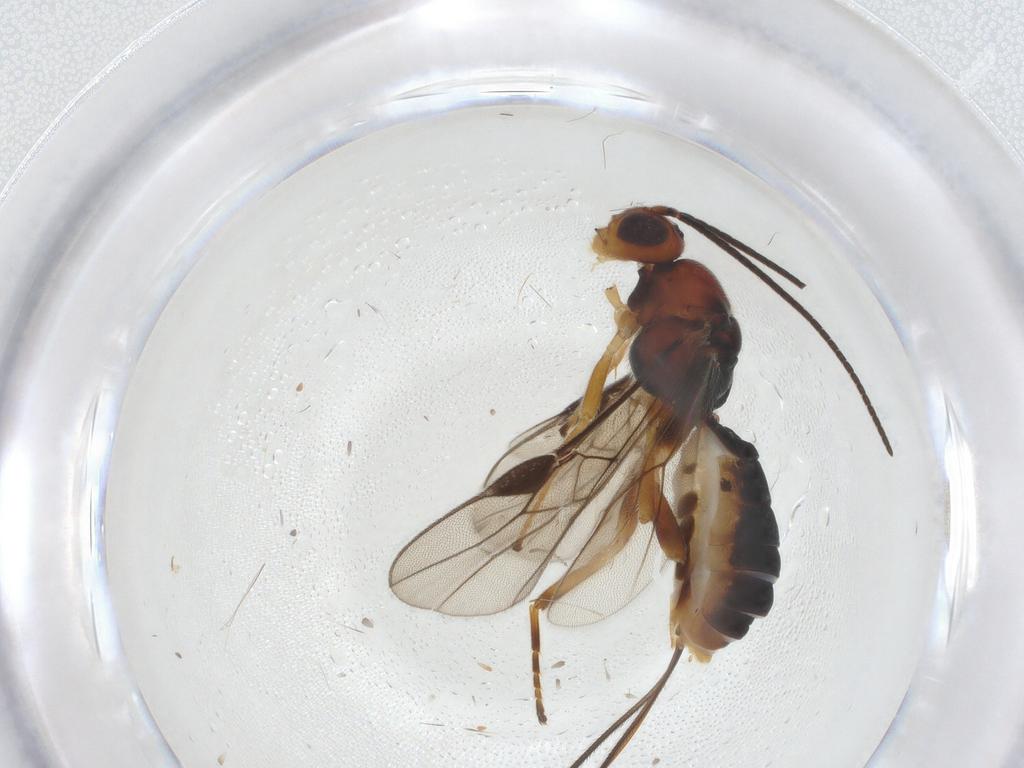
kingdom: Animalia
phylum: Arthropoda
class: Insecta
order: Hymenoptera
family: Braconidae
